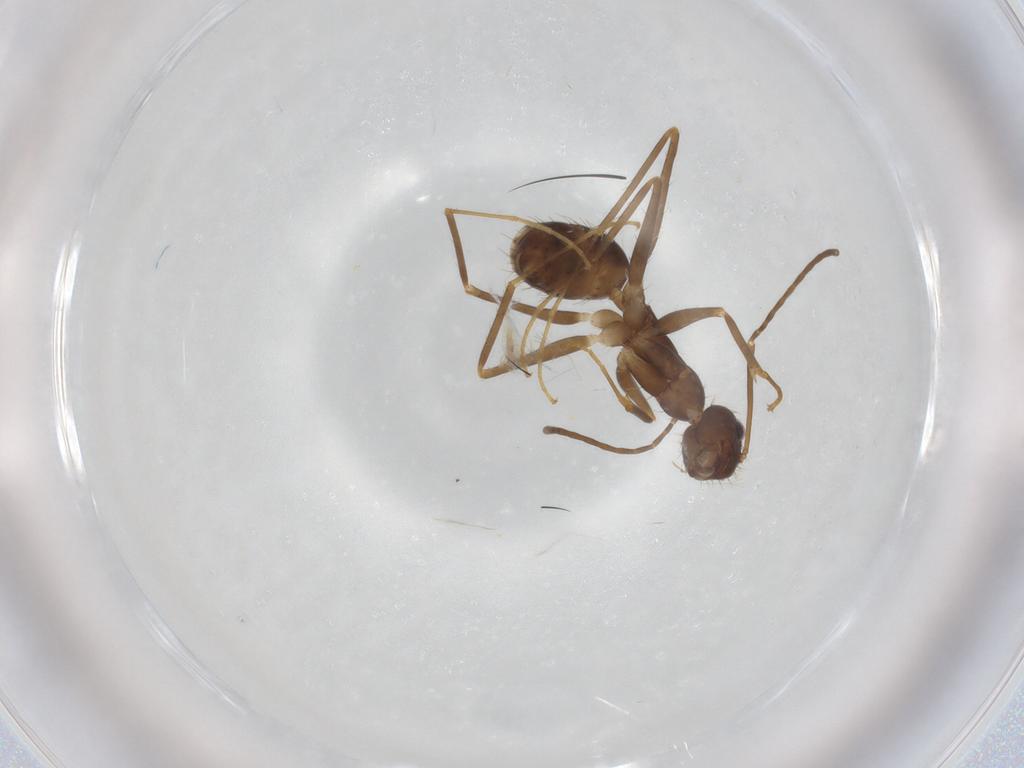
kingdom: Animalia
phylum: Arthropoda
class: Insecta
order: Hymenoptera
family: Formicidae
